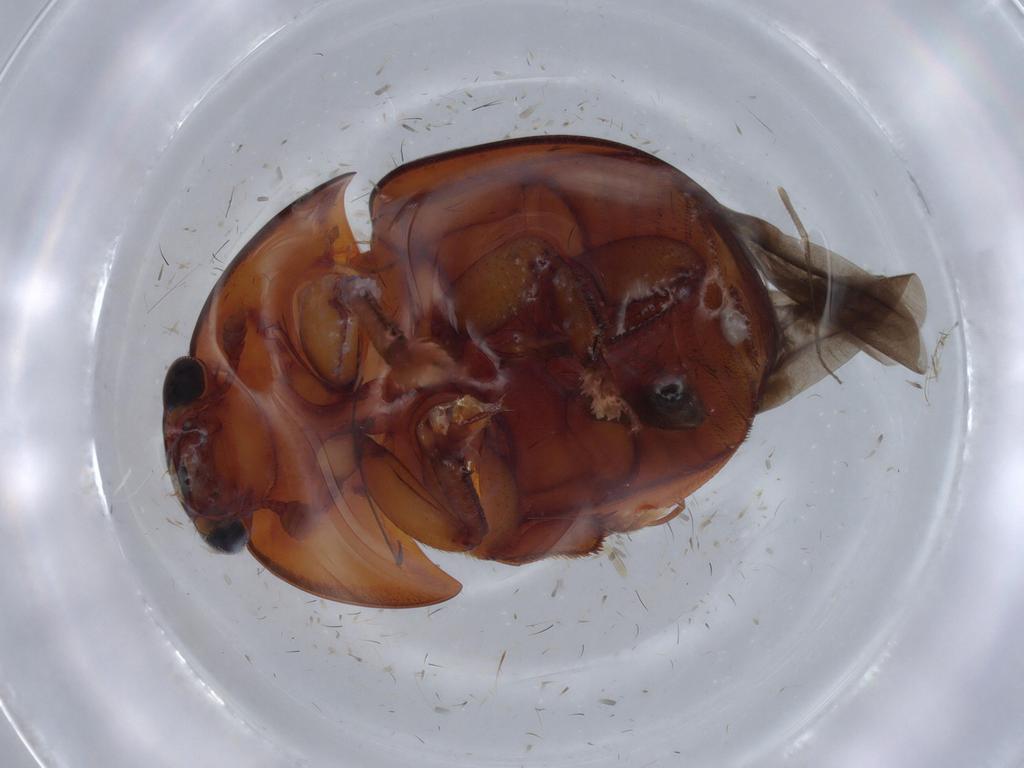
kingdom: Animalia
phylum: Arthropoda
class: Insecta
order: Coleoptera
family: Nitidulidae
